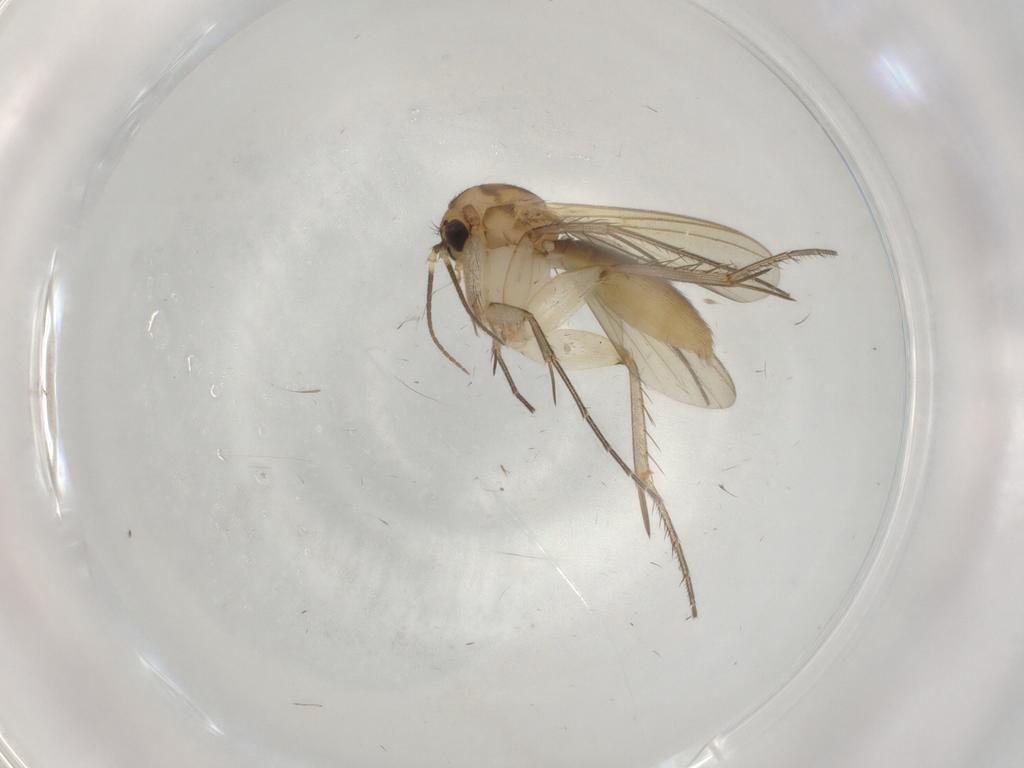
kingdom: Animalia
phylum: Arthropoda
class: Insecta
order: Diptera
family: Mycetophilidae
